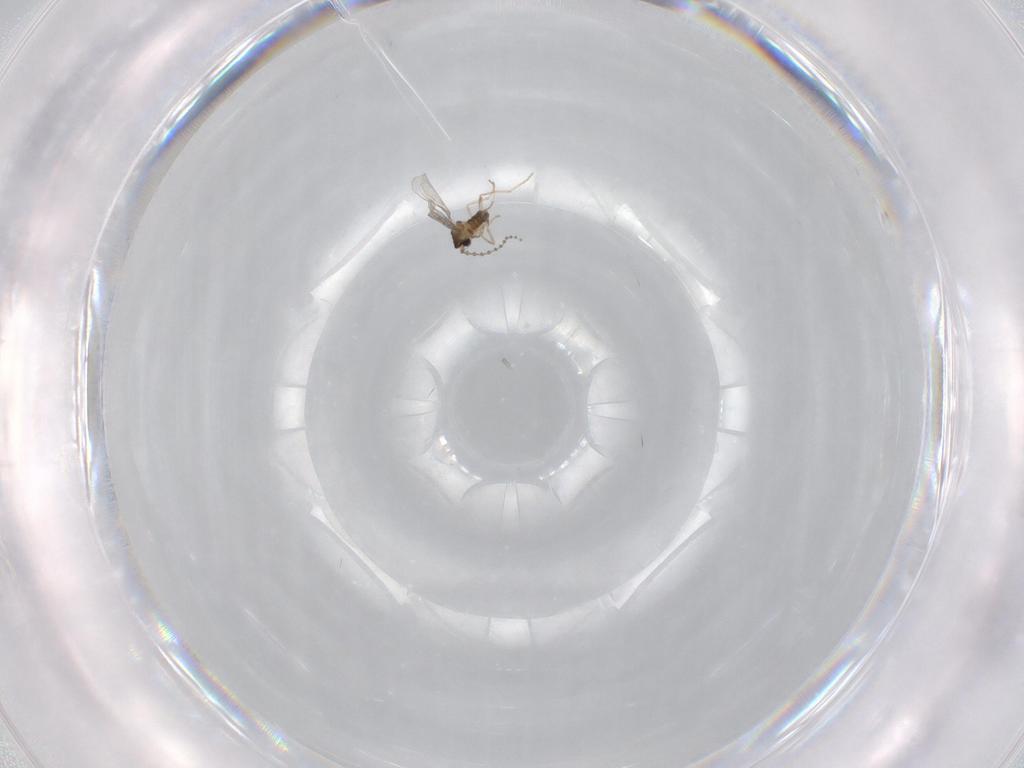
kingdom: Animalia
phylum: Arthropoda
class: Insecta
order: Diptera
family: Cecidomyiidae
